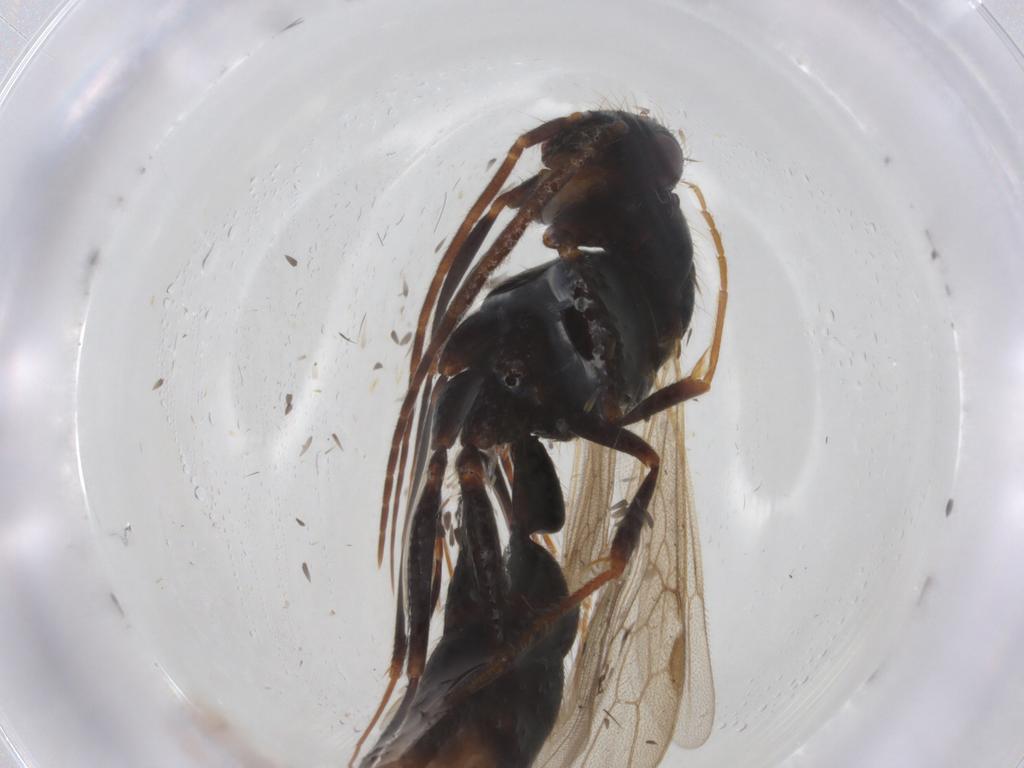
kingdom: Animalia
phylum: Arthropoda
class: Insecta
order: Hymenoptera
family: Formicidae
